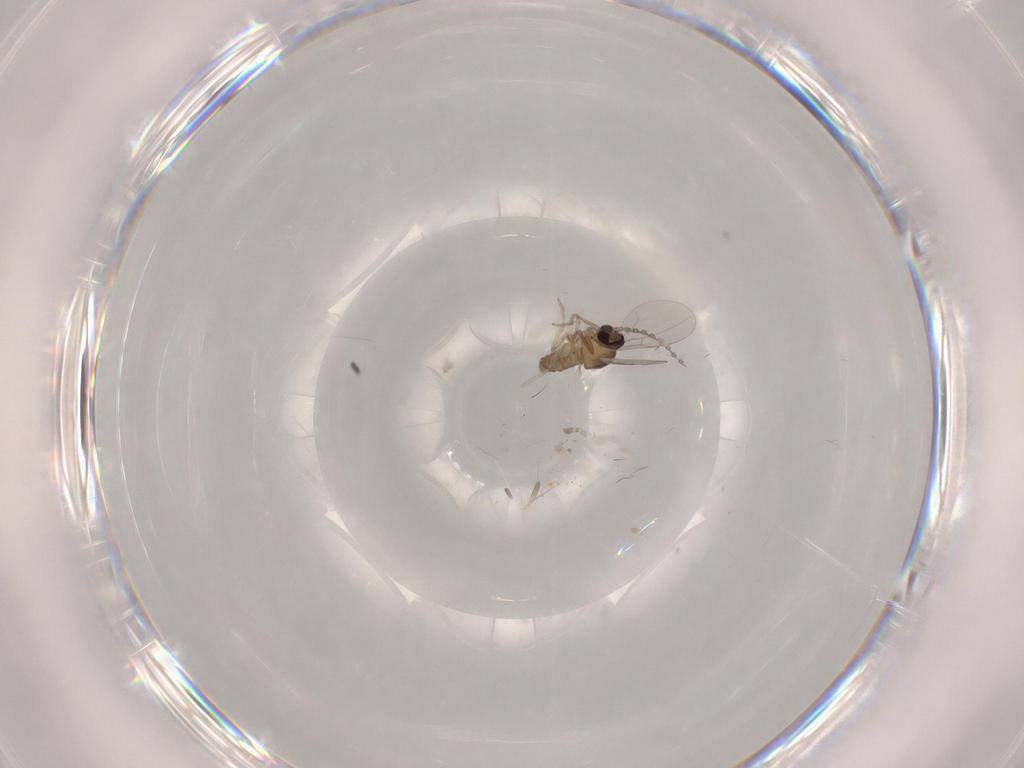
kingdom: Animalia
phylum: Arthropoda
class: Insecta
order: Diptera
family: Cecidomyiidae
